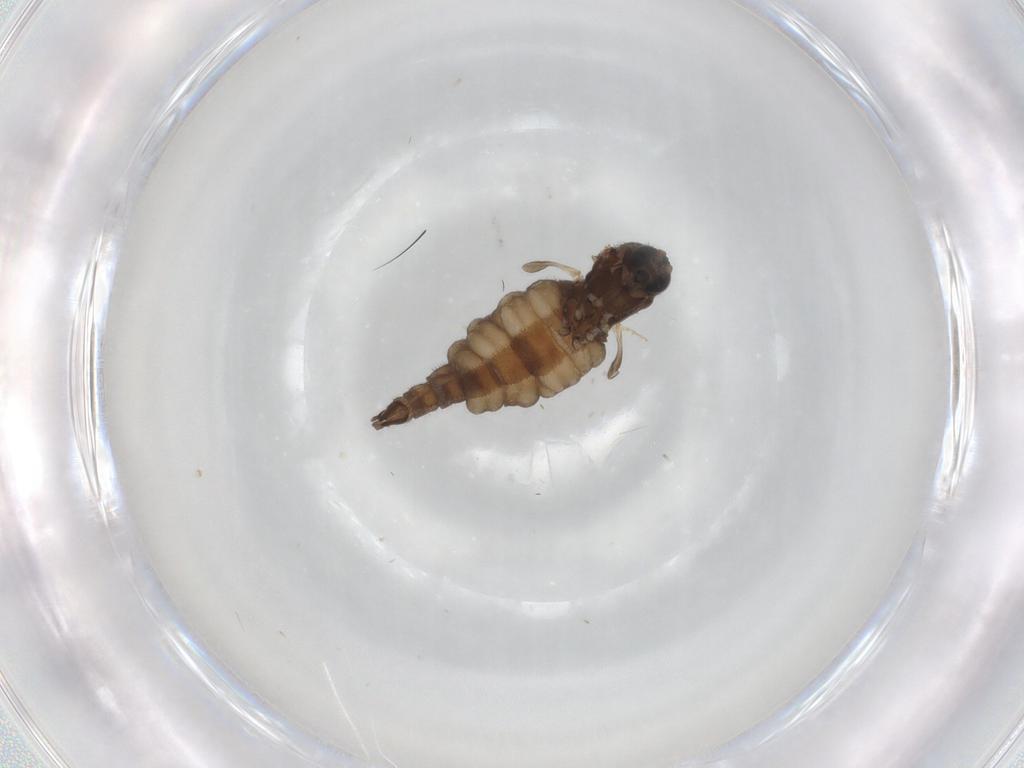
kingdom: Animalia
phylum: Arthropoda
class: Insecta
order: Diptera
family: Sciaridae
